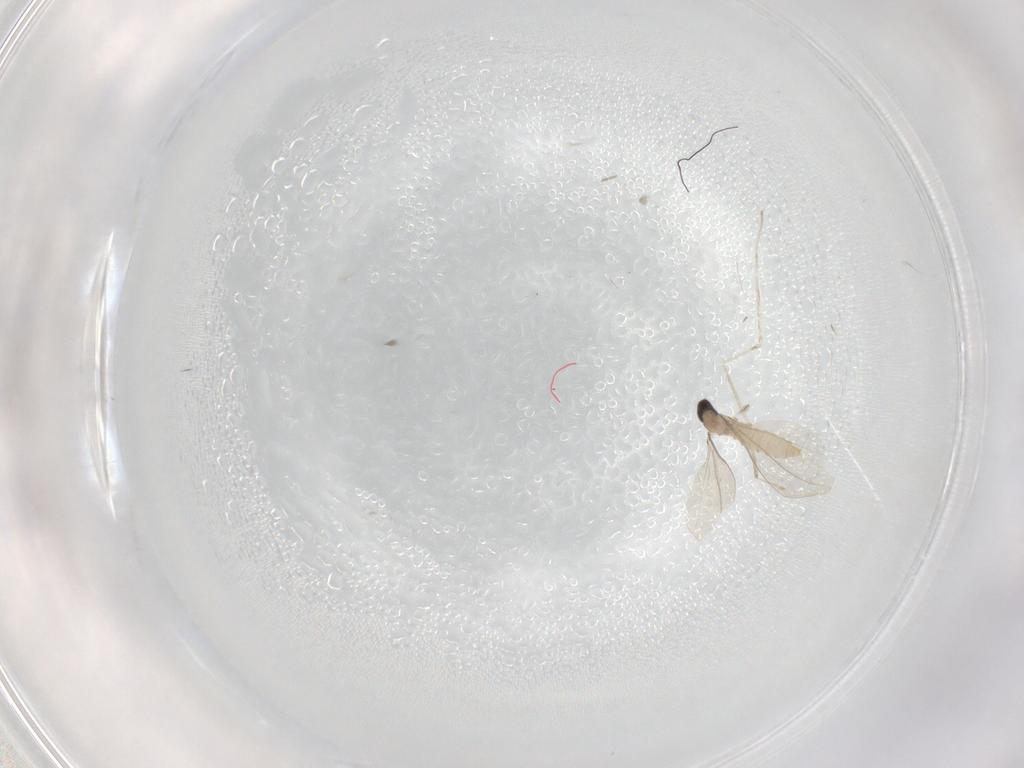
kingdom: Animalia
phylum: Arthropoda
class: Insecta
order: Diptera
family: Cecidomyiidae
